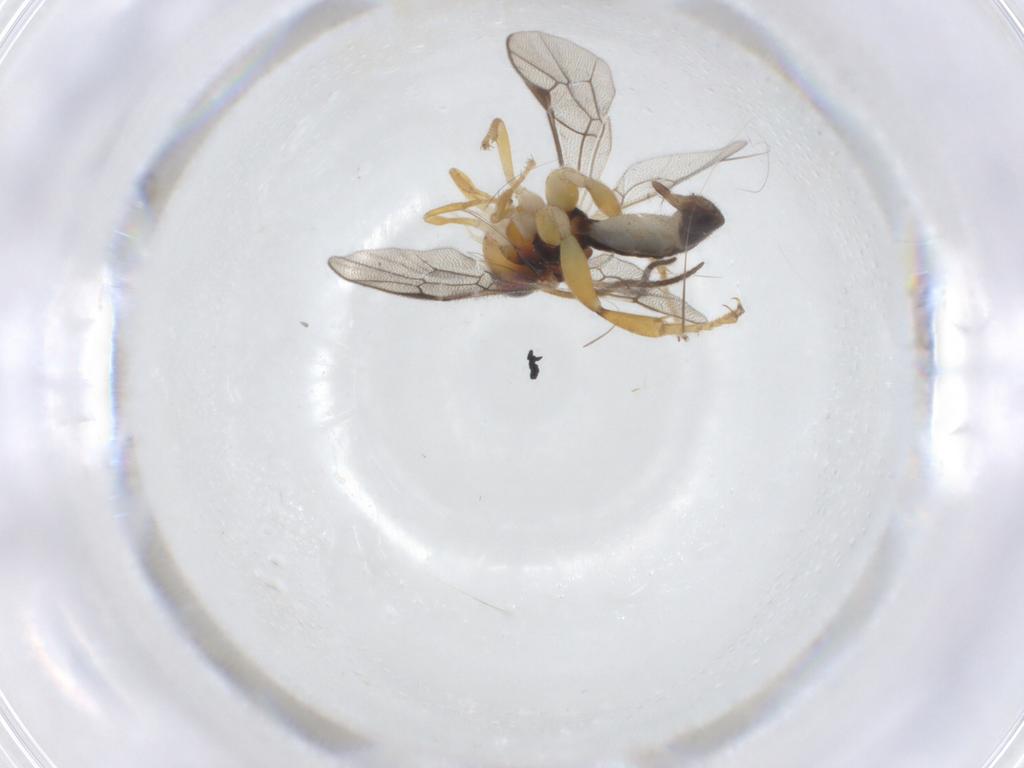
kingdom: Animalia
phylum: Arthropoda
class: Insecta
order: Hymenoptera
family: Ichneumonidae
